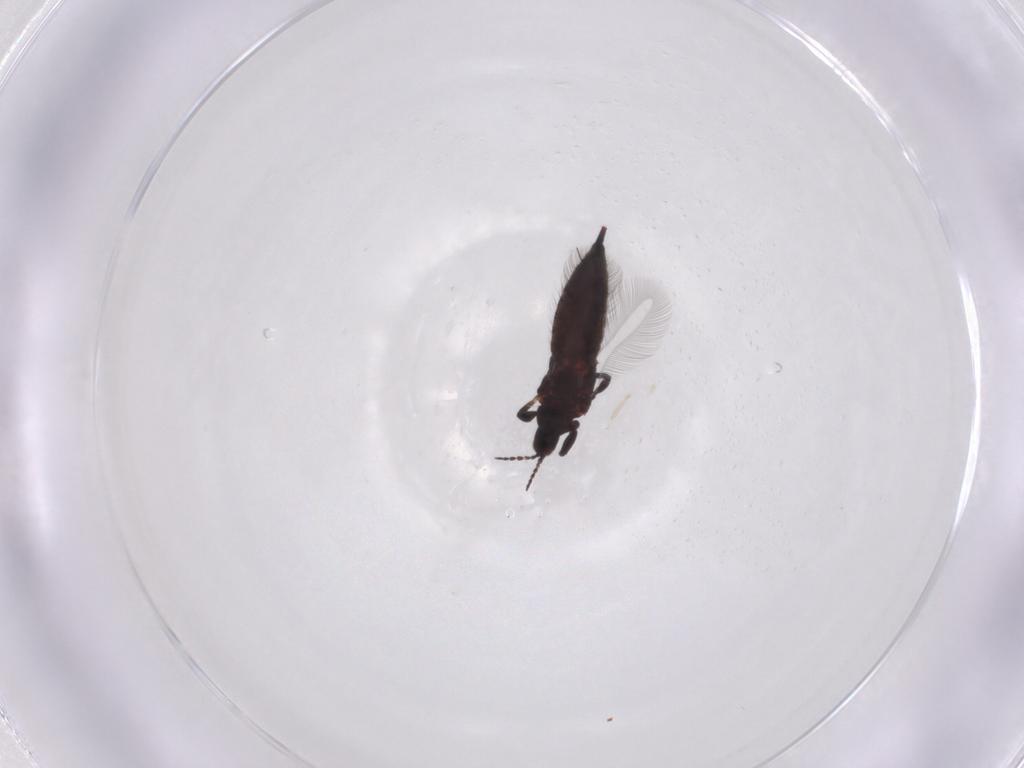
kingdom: Animalia
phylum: Arthropoda
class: Insecta
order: Thysanoptera
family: Phlaeothripidae
